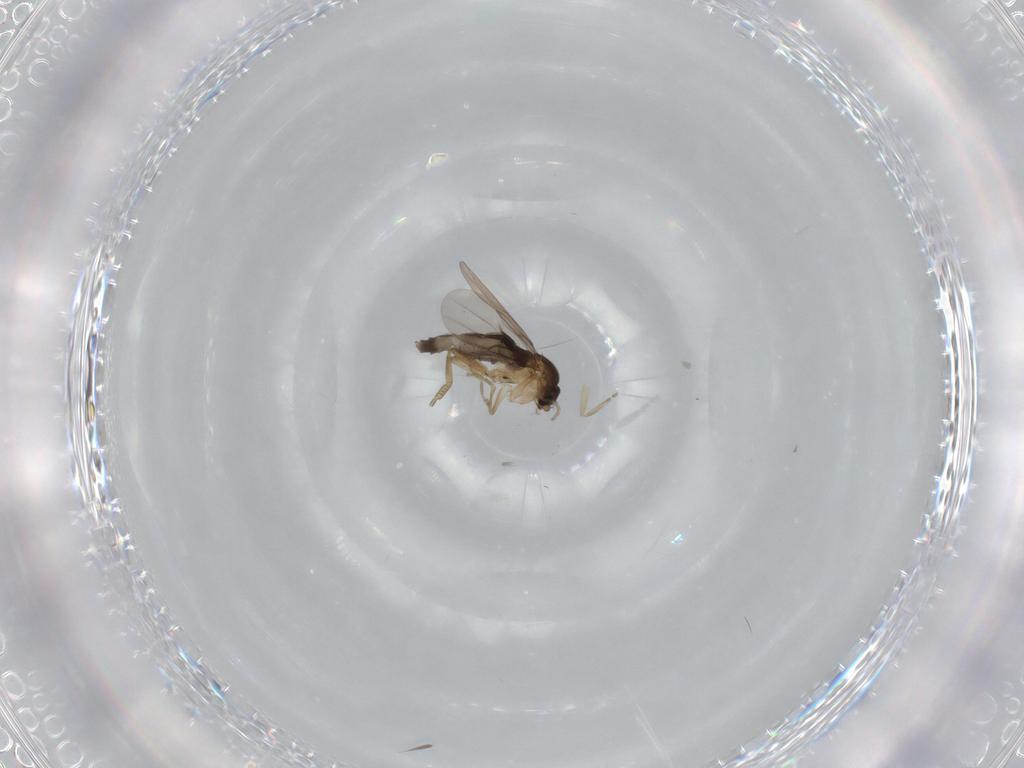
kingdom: Animalia
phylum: Arthropoda
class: Insecta
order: Diptera
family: Phoridae
